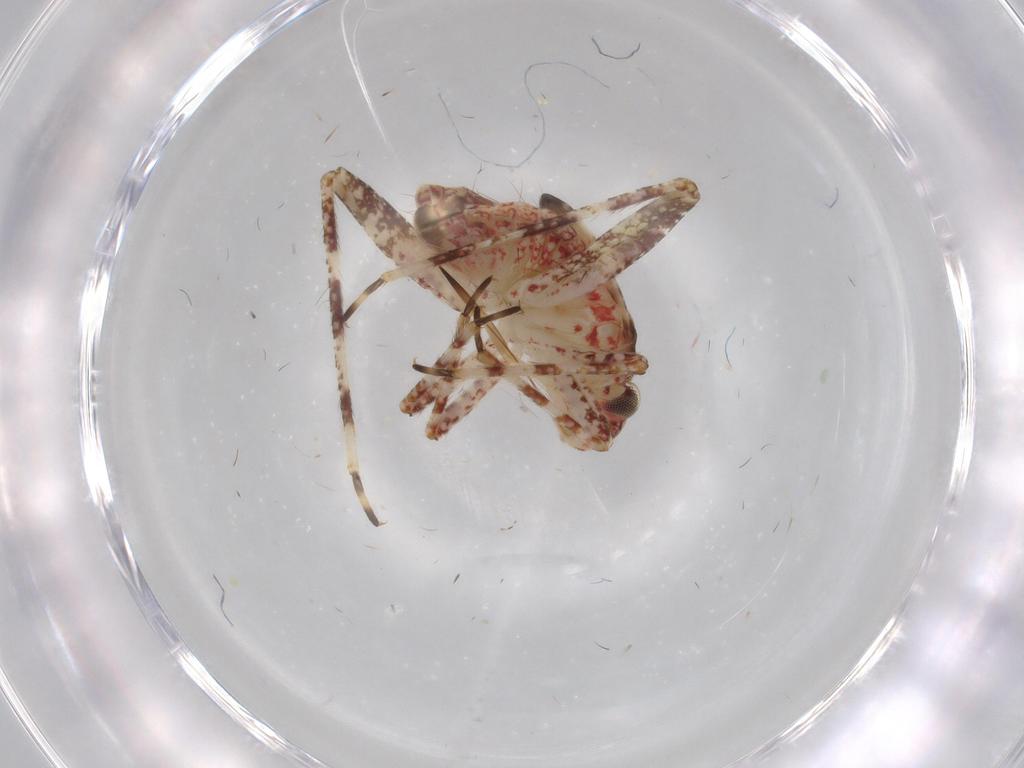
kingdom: Animalia
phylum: Arthropoda
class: Insecta
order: Hemiptera
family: Miridae
